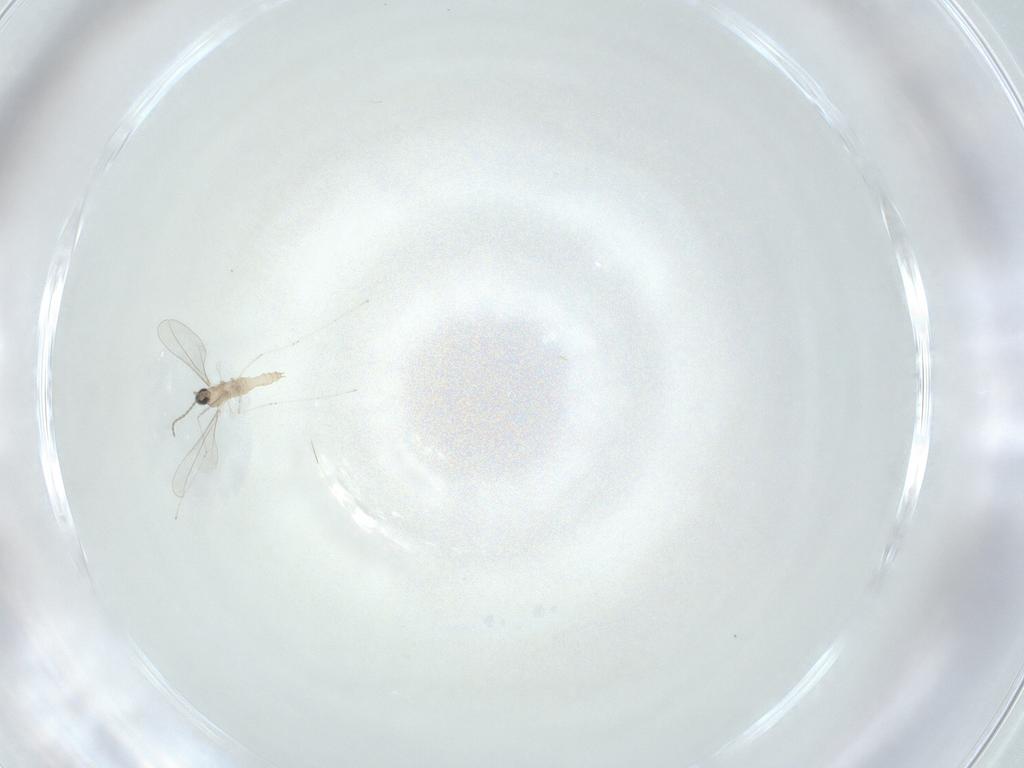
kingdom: Animalia
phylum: Arthropoda
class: Insecta
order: Diptera
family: Cecidomyiidae
